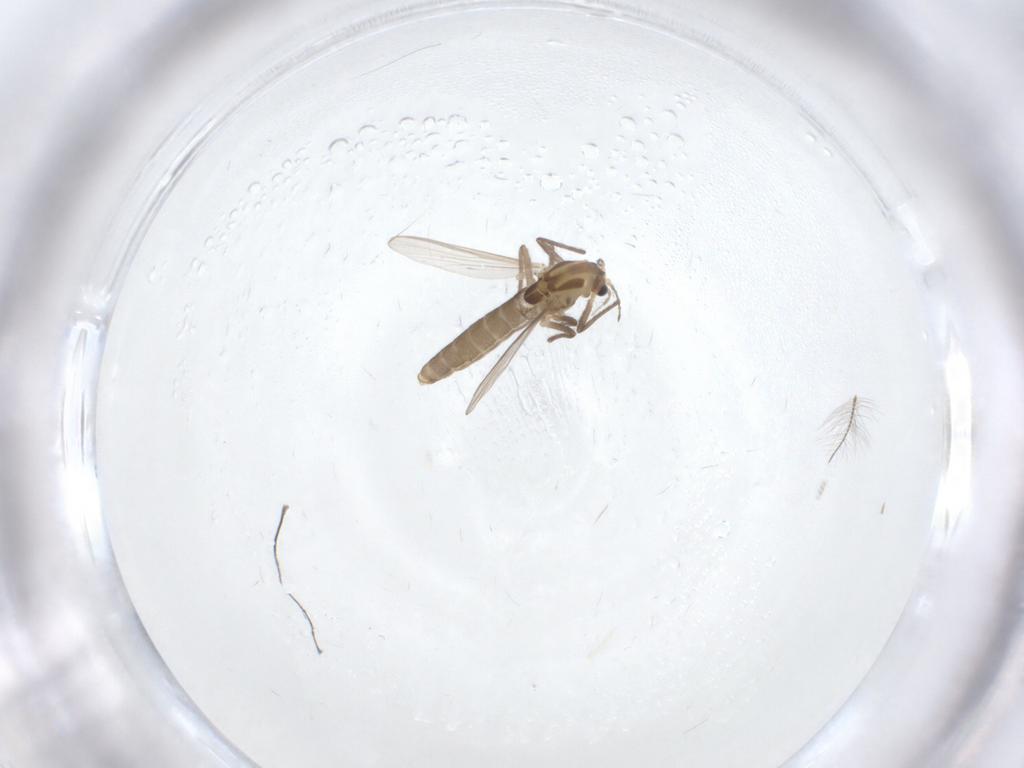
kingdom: Animalia
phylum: Arthropoda
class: Insecta
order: Diptera
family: Chironomidae
